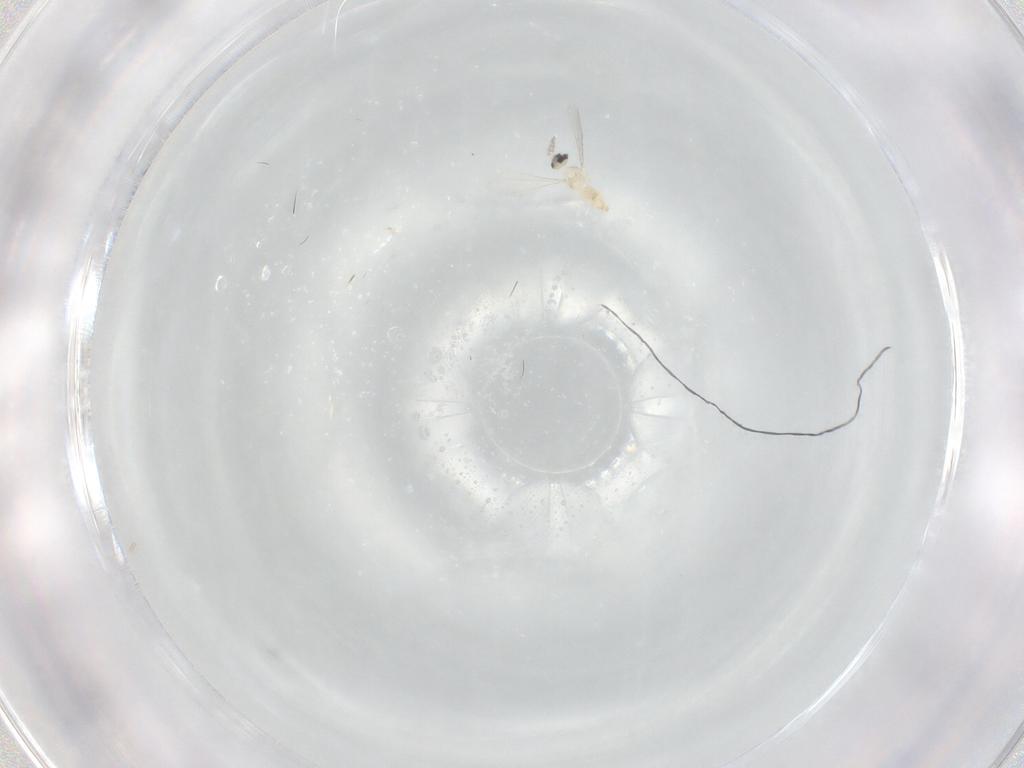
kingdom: Animalia
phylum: Arthropoda
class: Insecta
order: Diptera
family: Cecidomyiidae
